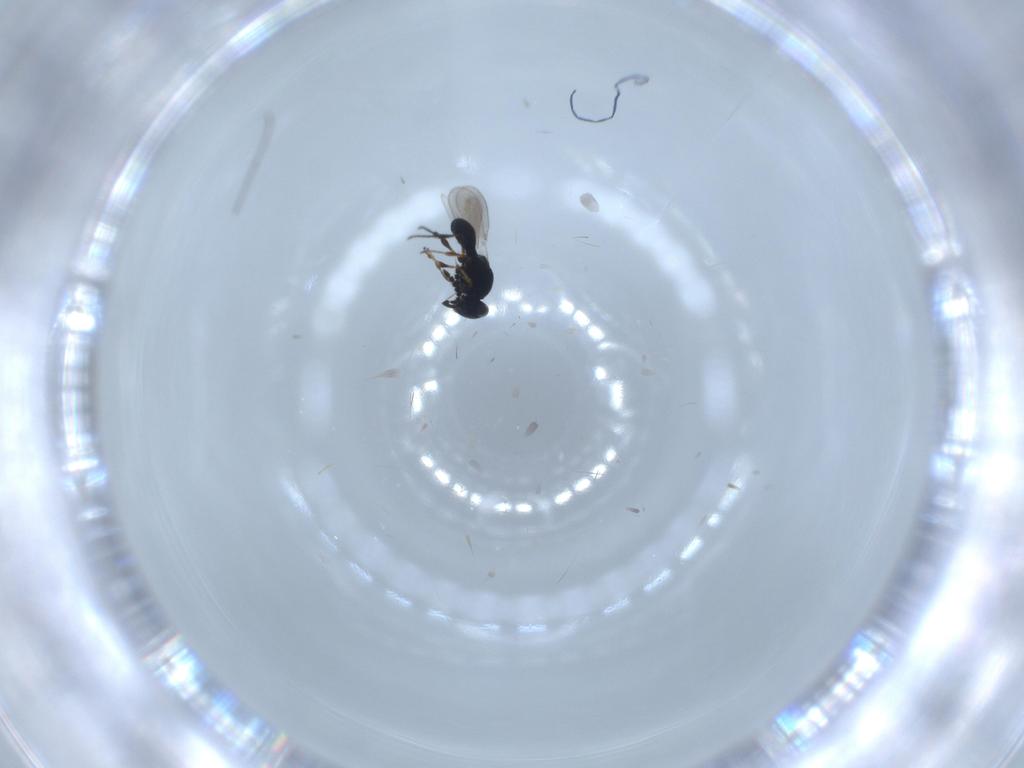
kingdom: Animalia
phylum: Arthropoda
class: Insecta
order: Hymenoptera
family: Platygastridae
